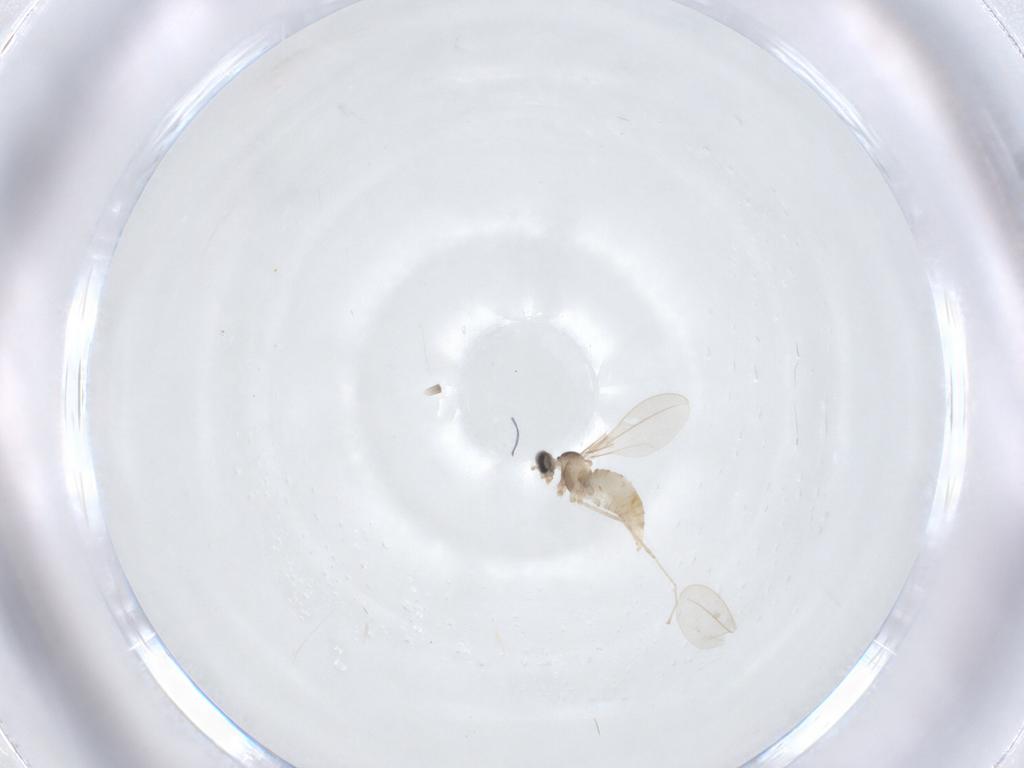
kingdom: Animalia
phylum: Arthropoda
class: Insecta
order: Diptera
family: Cecidomyiidae
